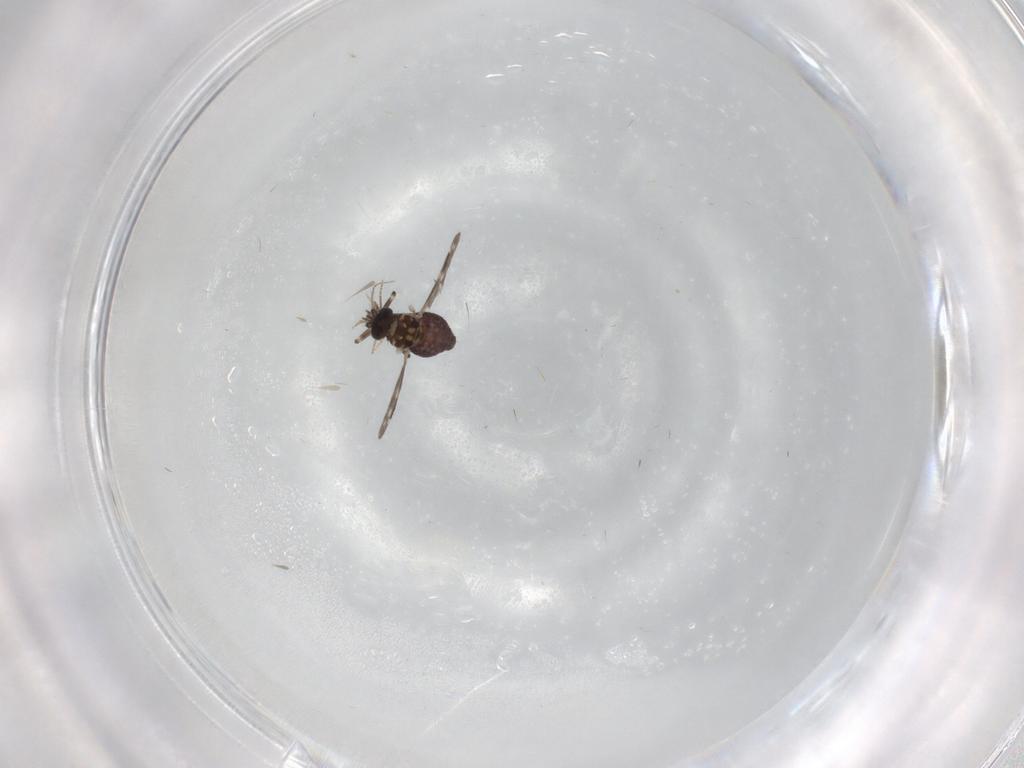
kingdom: Animalia
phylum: Arthropoda
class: Insecta
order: Diptera
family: Ceratopogonidae
